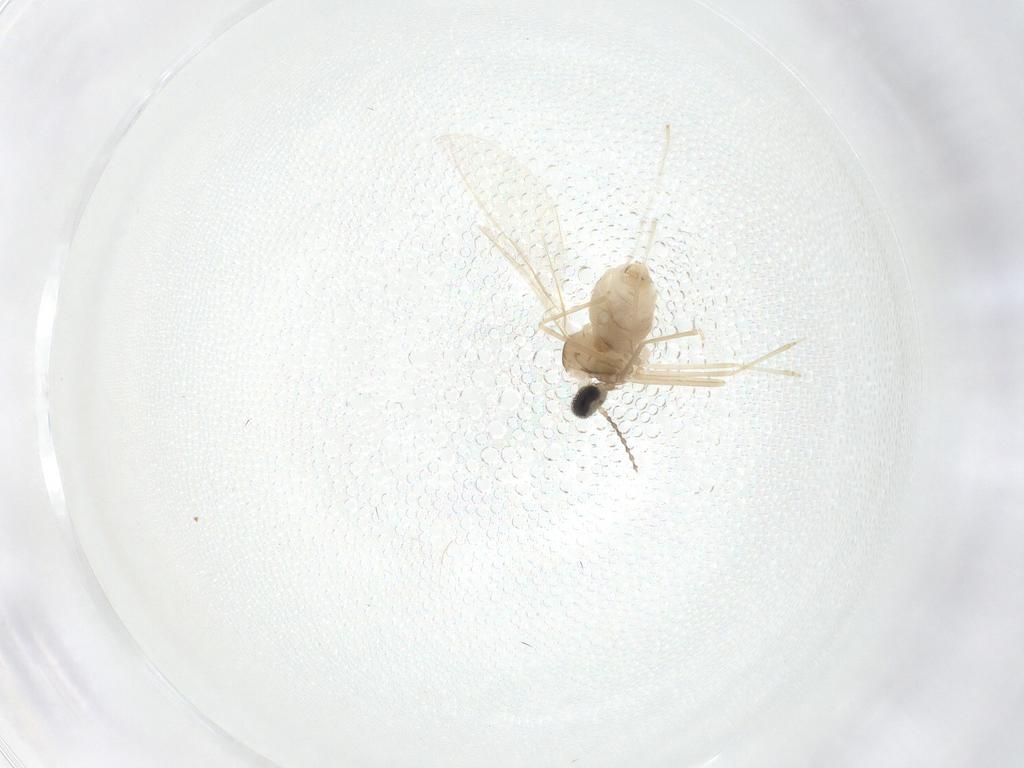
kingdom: Animalia
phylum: Arthropoda
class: Insecta
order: Diptera
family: Cecidomyiidae
